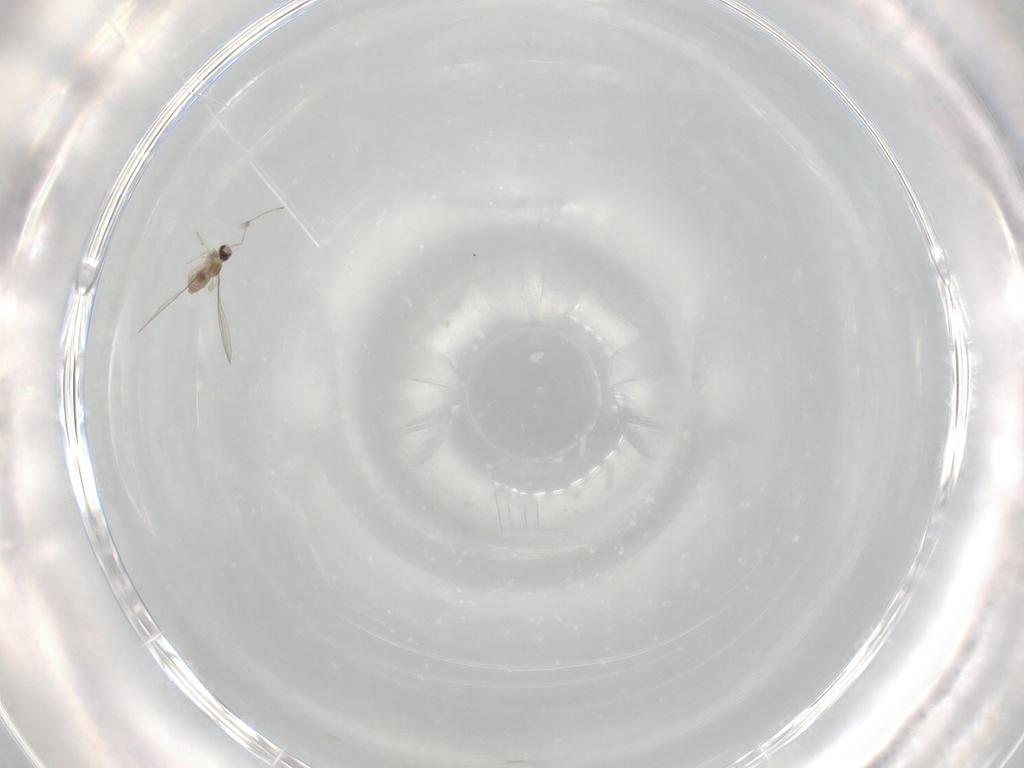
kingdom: Animalia
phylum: Arthropoda
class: Insecta
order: Diptera
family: Cecidomyiidae
